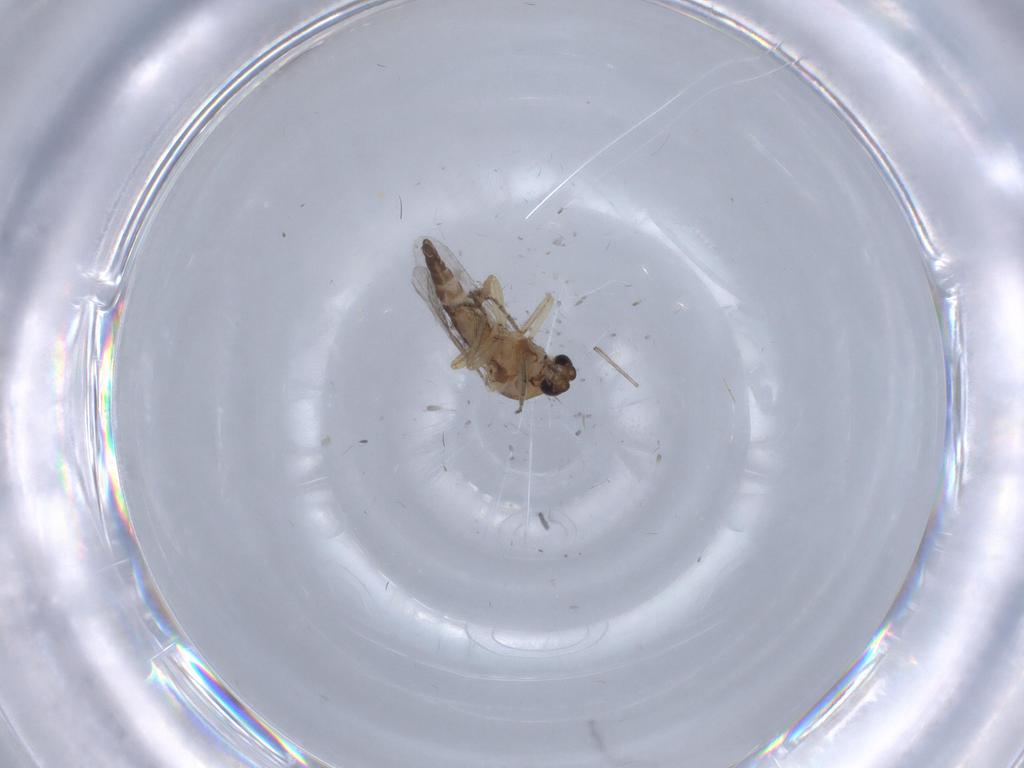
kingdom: Animalia
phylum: Arthropoda
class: Insecta
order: Diptera
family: Ceratopogonidae
